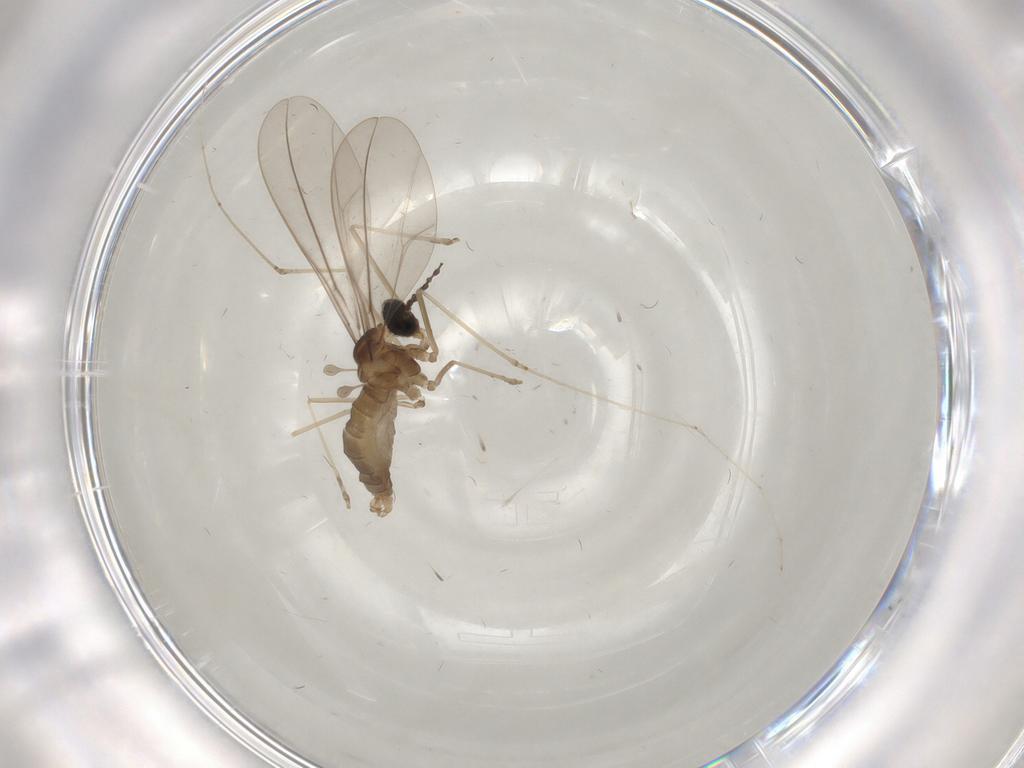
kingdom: Animalia
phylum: Arthropoda
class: Insecta
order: Diptera
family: Cecidomyiidae
